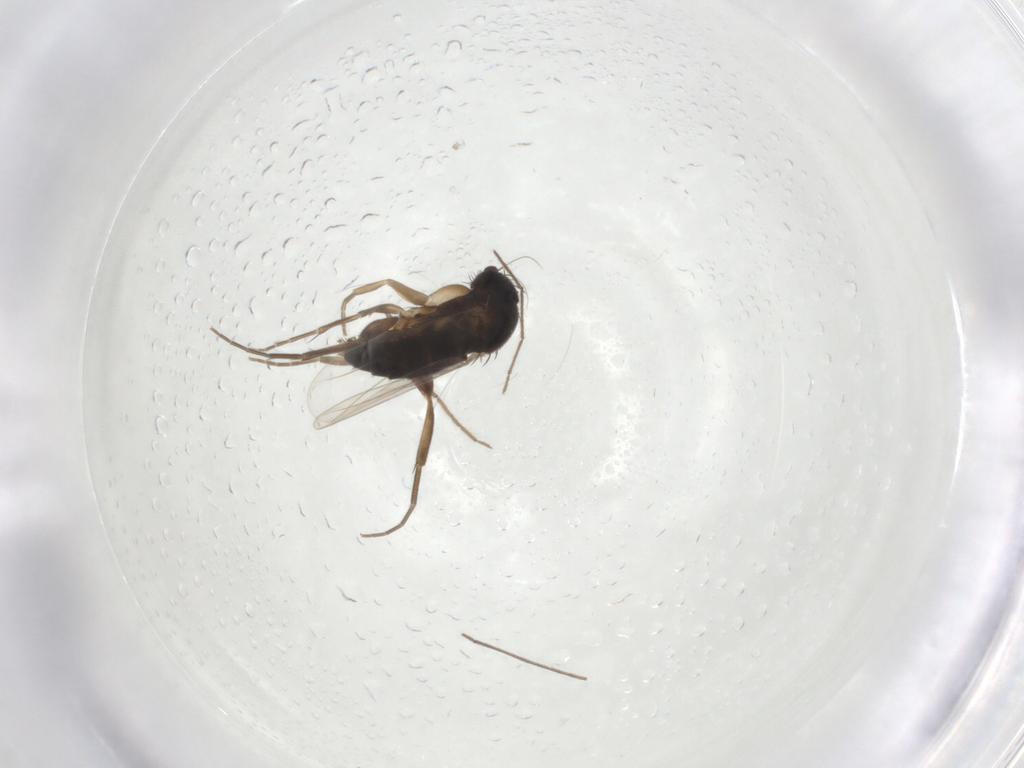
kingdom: Animalia
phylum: Arthropoda
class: Insecta
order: Diptera
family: Phoridae
